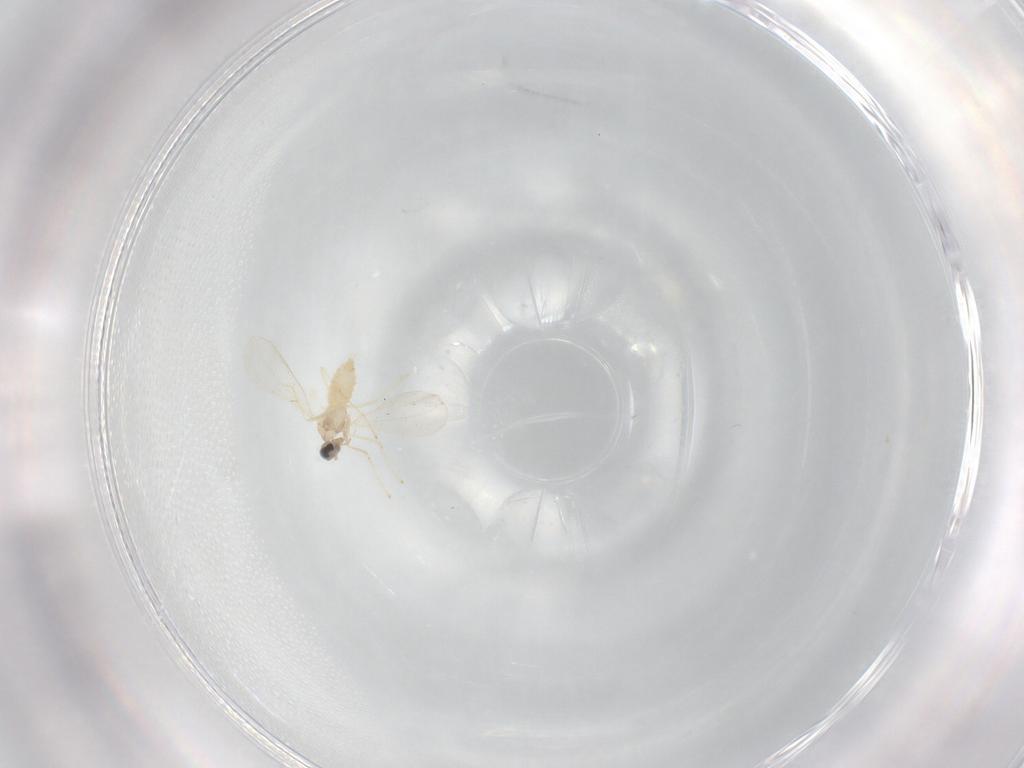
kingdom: Animalia
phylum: Arthropoda
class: Insecta
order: Diptera
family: Cecidomyiidae
